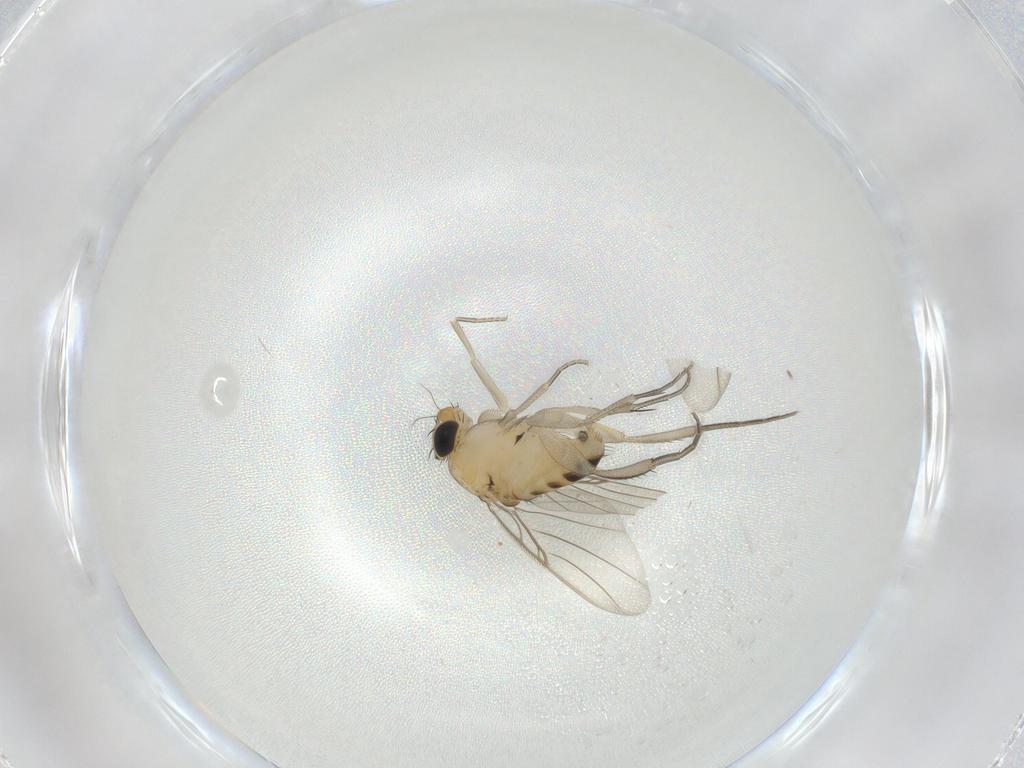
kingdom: Animalia
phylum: Arthropoda
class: Insecta
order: Diptera
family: Phoridae
